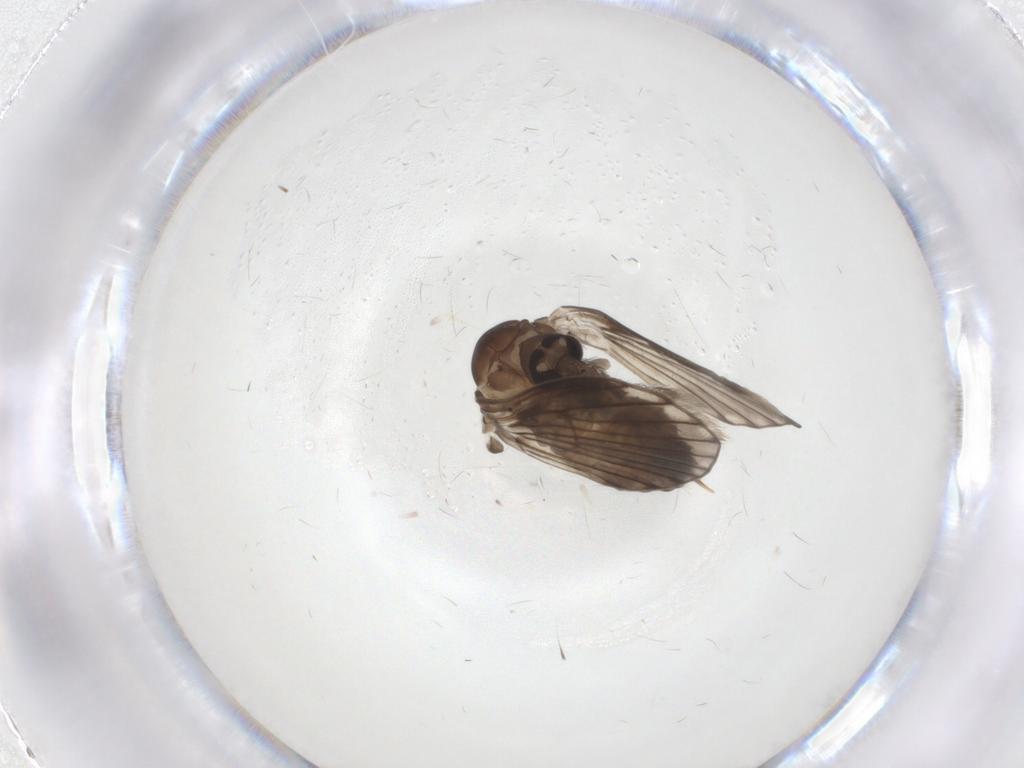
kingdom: Animalia
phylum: Arthropoda
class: Insecta
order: Diptera
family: Psychodidae
